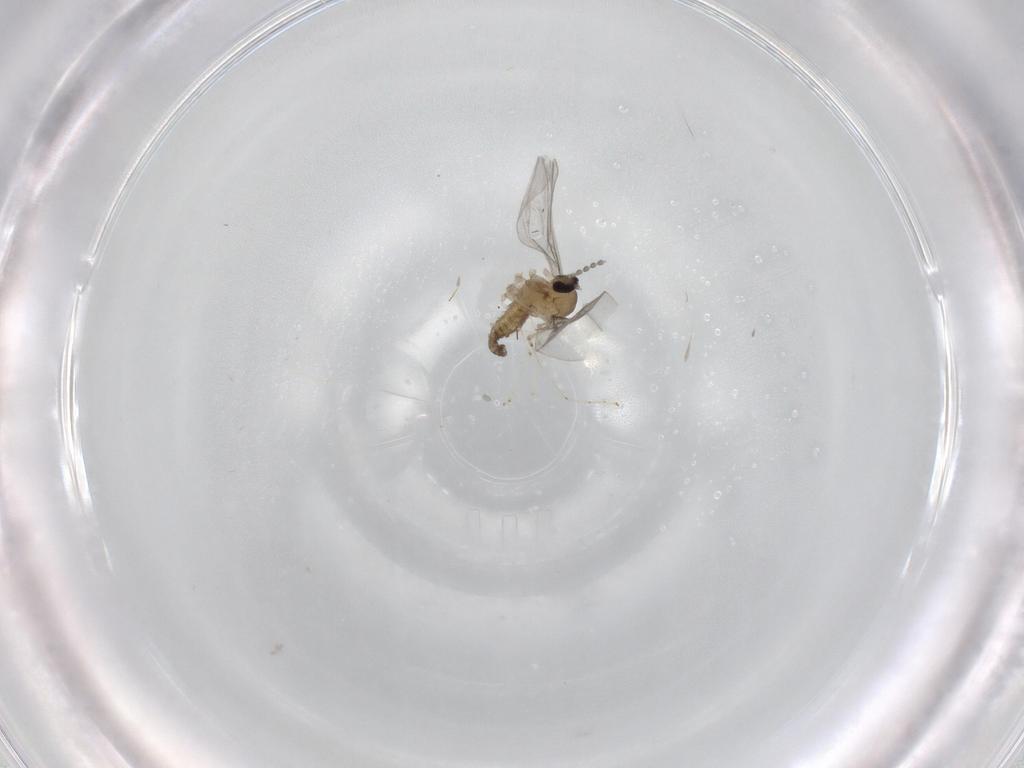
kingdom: Animalia
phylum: Arthropoda
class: Insecta
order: Diptera
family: Cecidomyiidae
